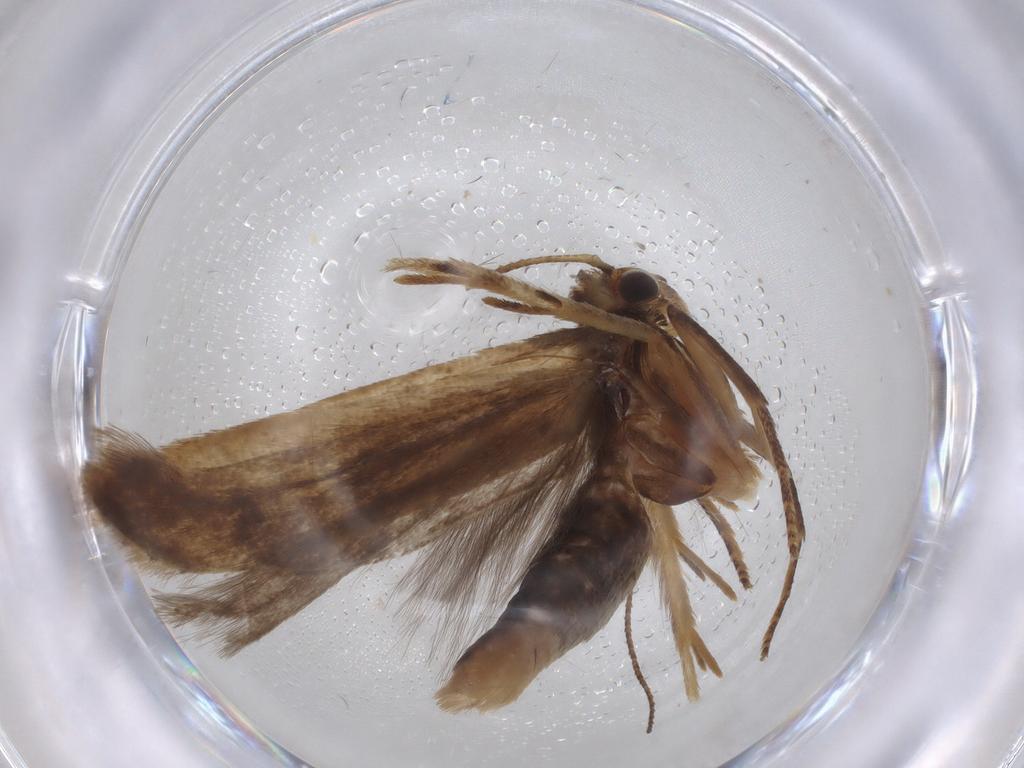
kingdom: Animalia
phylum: Arthropoda
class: Insecta
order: Lepidoptera
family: Gelechiidae
